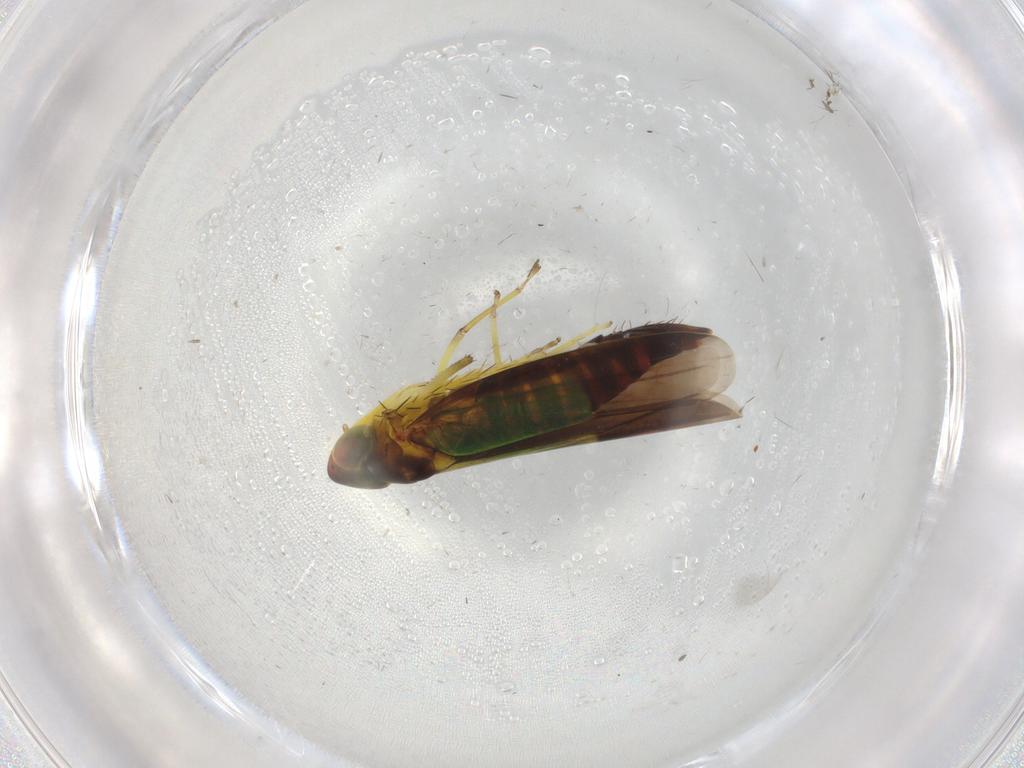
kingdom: Animalia
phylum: Arthropoda
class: Insecta
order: Hemiptera
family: Cicadellidae
